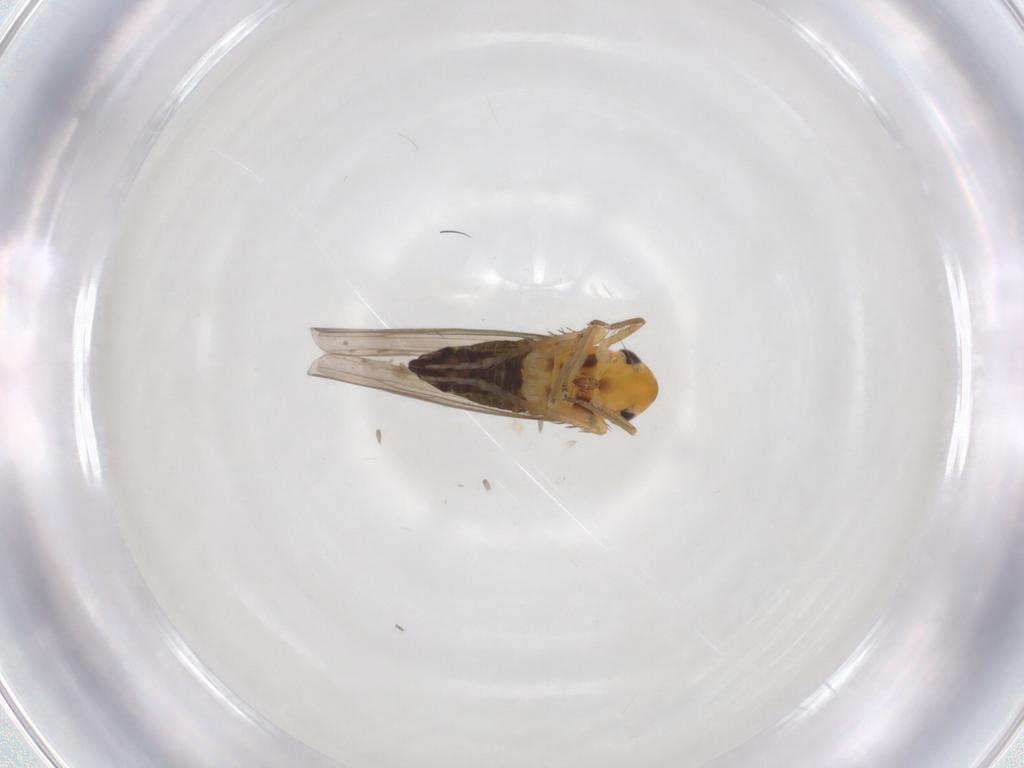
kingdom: Animalia
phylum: Arthropoda
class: Insecta
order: Hemiptera
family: Cicadellidae
